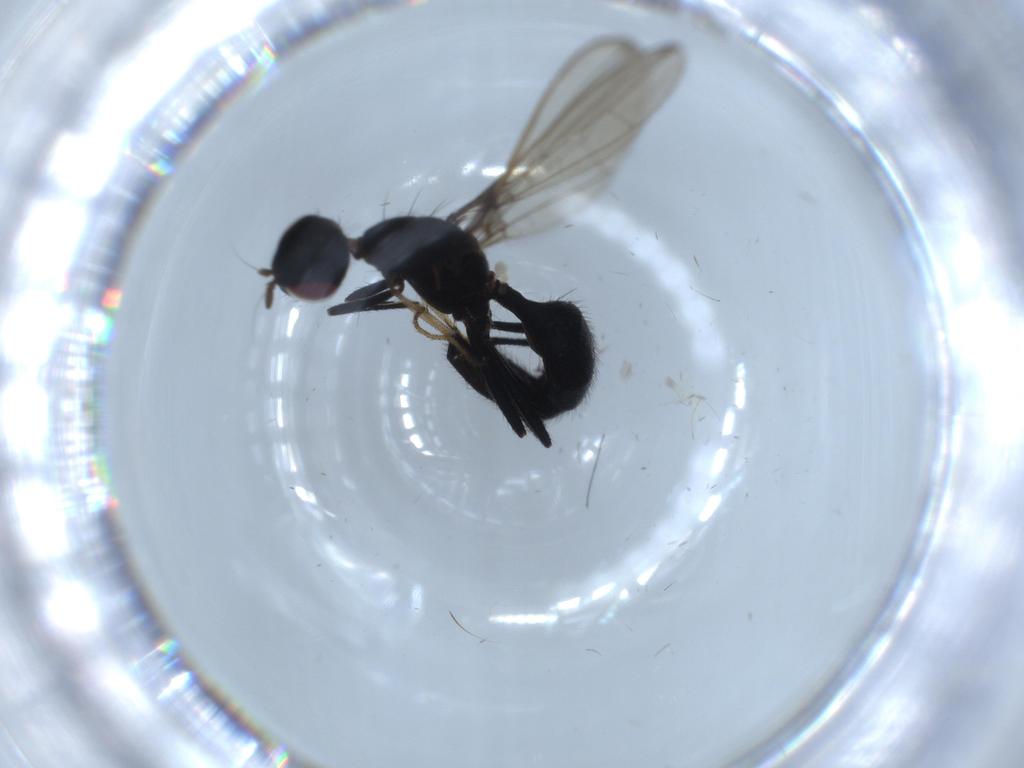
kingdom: Animalia
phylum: Arthropoda
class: Insecta
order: Diptera
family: Richardiidae
